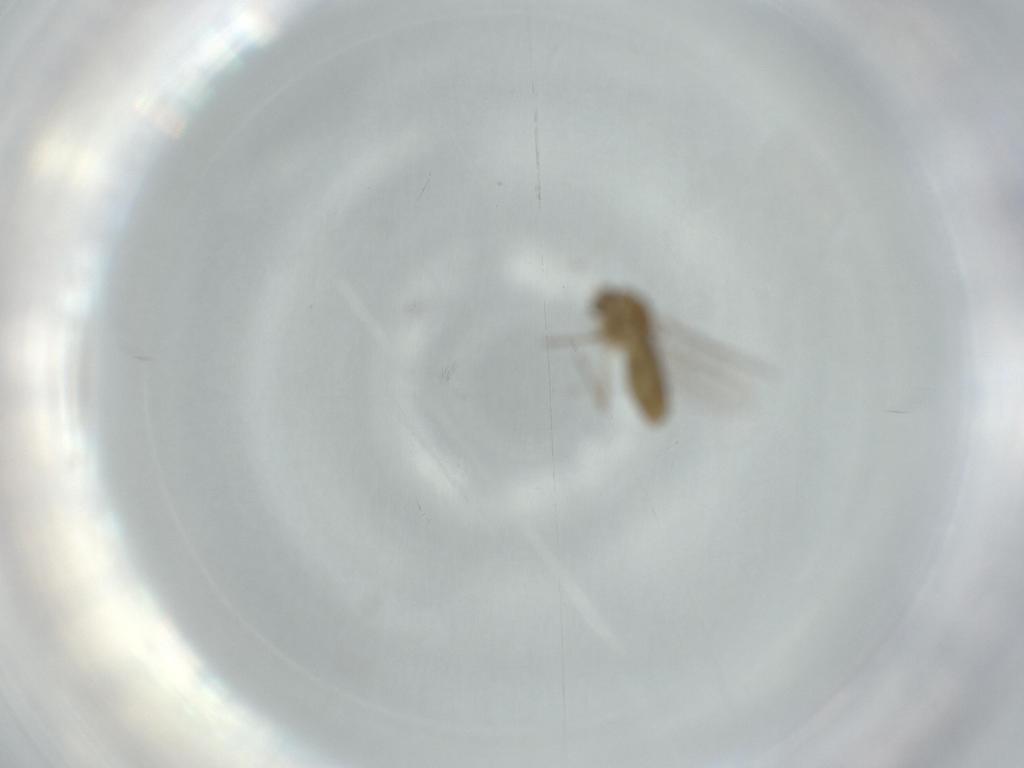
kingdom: Animalia
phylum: Arthropoda
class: Insecta
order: Diptera
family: Chironomidae
